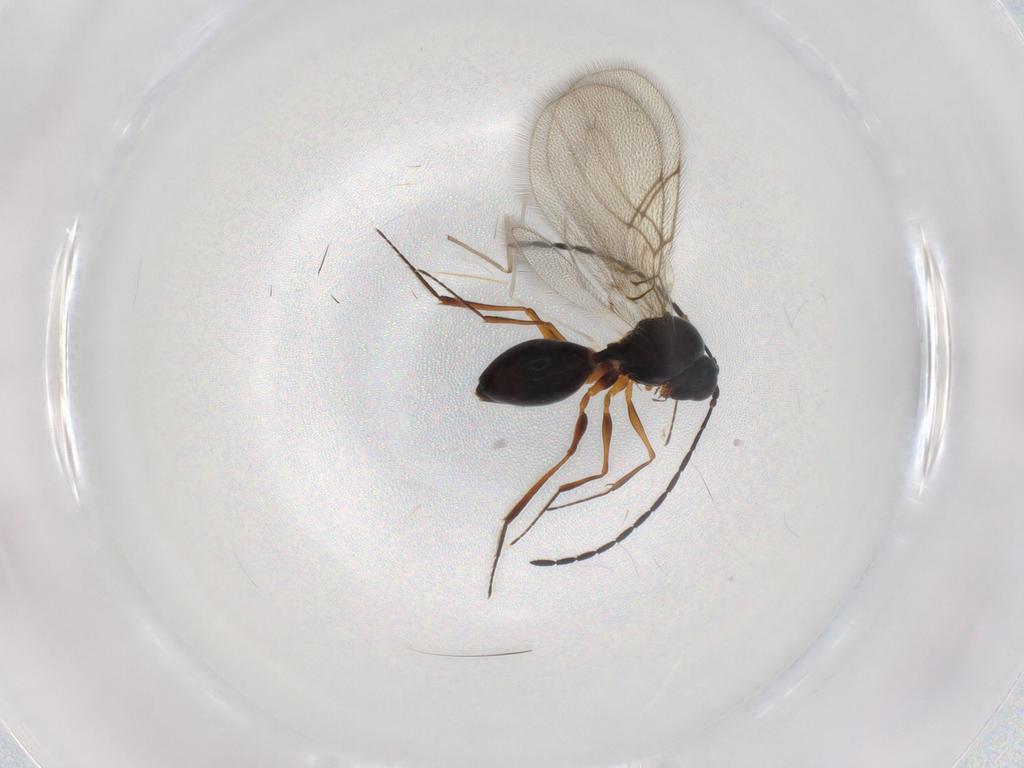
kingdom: Animalia
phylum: Arthropoda
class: Insecta
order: Hymenoptera
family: Figitidae
